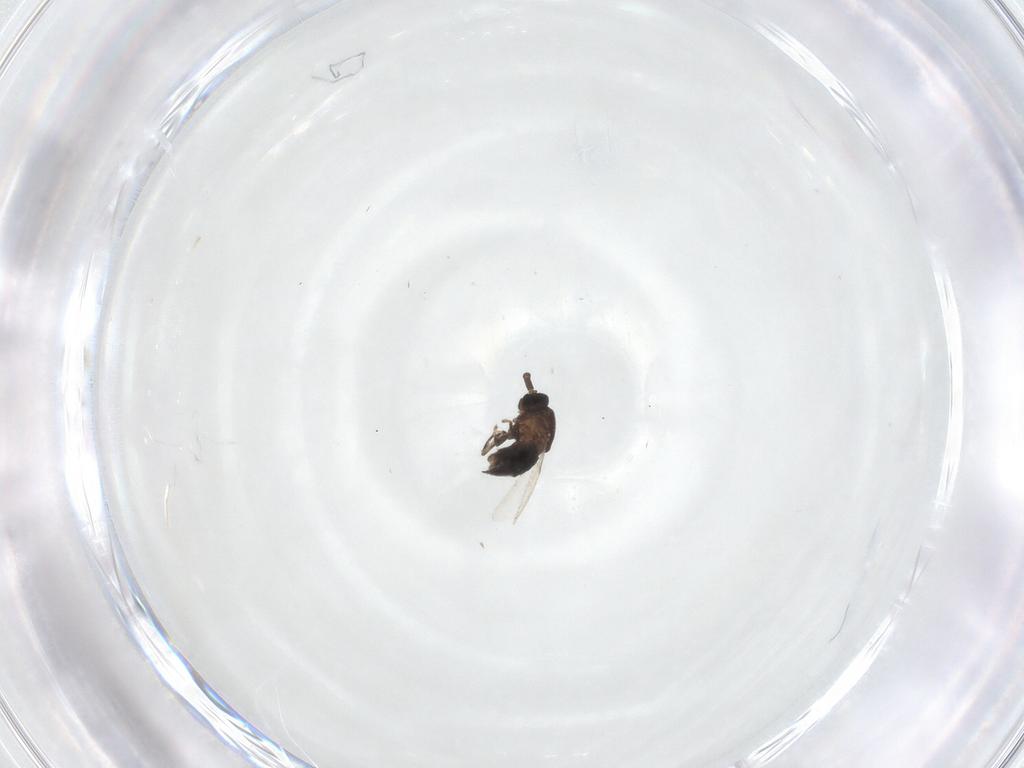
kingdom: Animalia
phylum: Arthropoda
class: Insecta
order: Diptera
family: Scatopsidae
